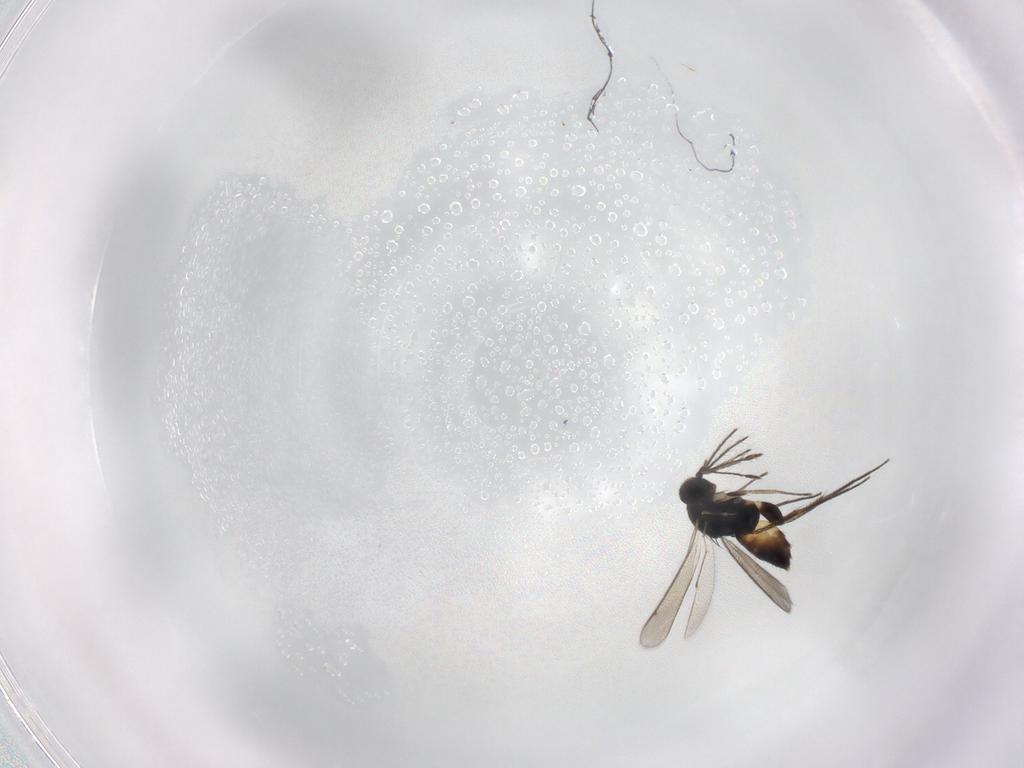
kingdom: Animalia
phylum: Arthropoda
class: Insecta
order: Hymenoptera
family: Eulophidae
